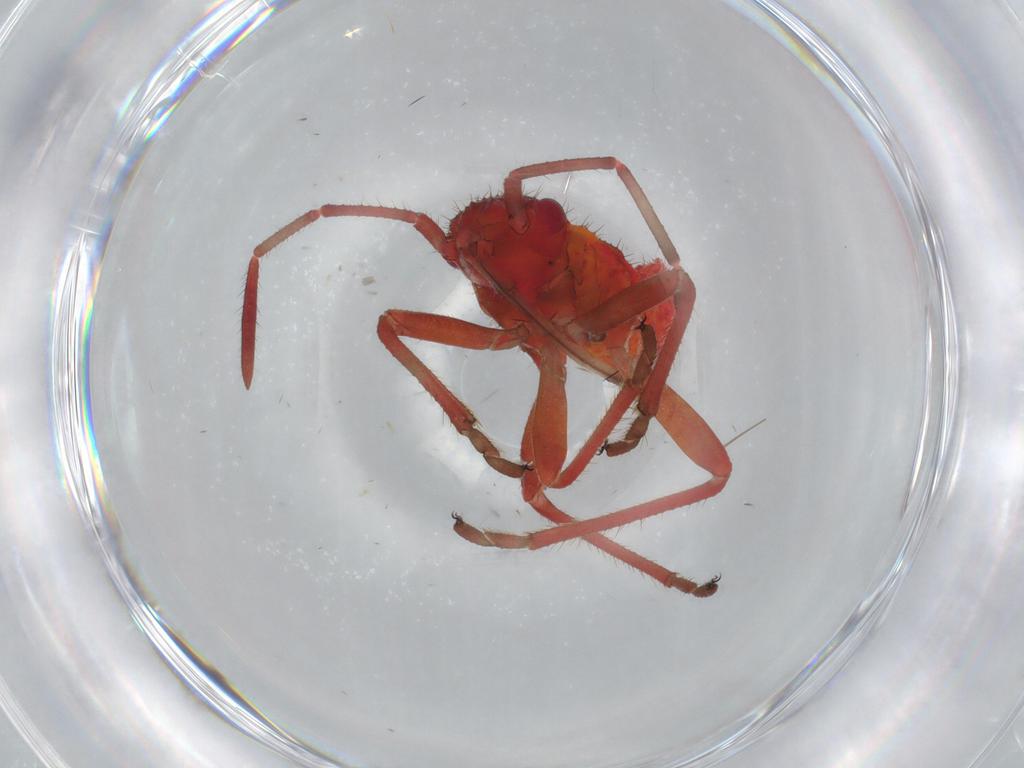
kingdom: Animalia
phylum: Arthropoda
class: Insecta
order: Hemiptera
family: Rhopalidae
